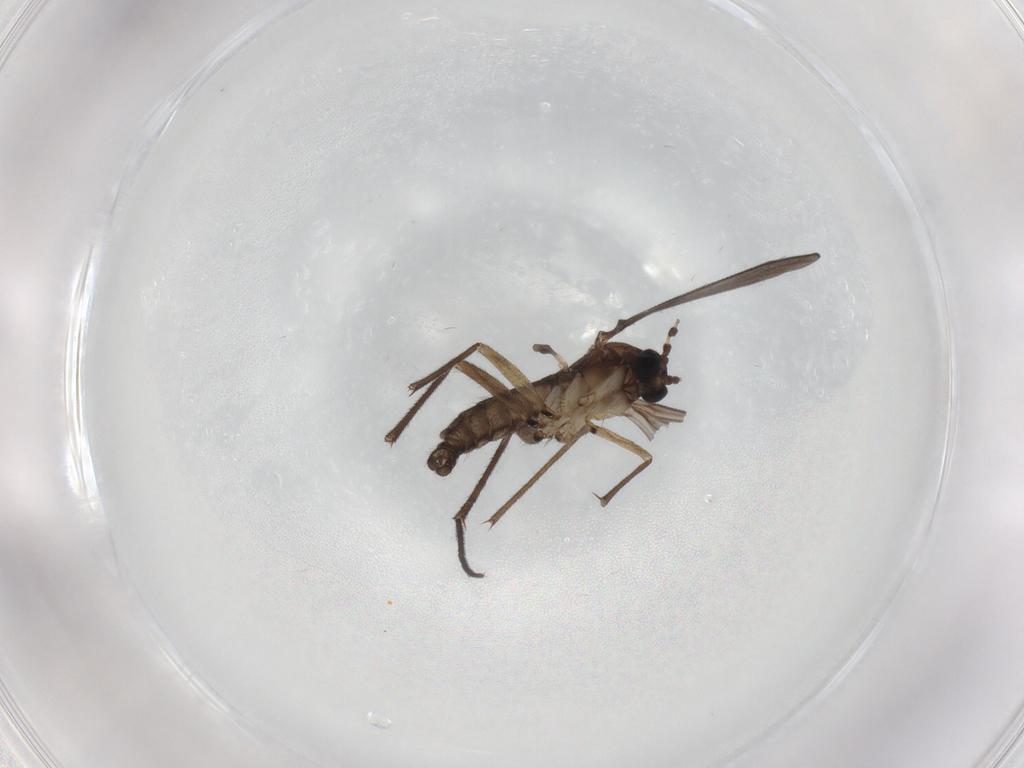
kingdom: Animalia
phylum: Arthropoda
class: Insecta
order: Diptera
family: Sciaridae
